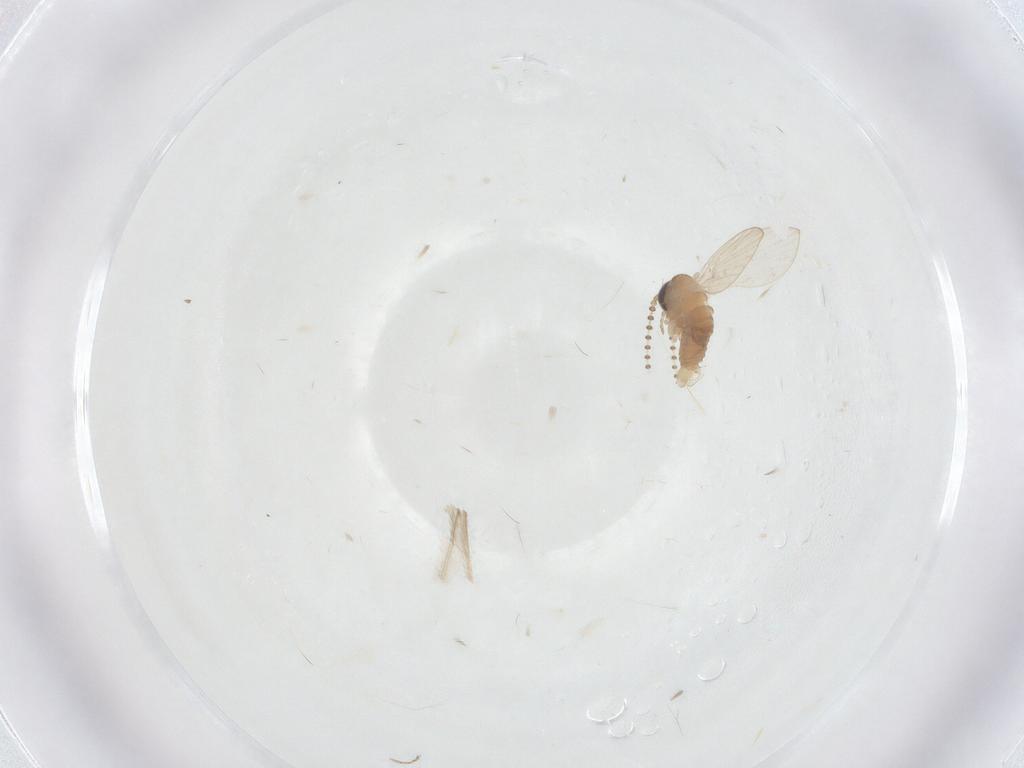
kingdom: Animalia
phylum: Arthropoda
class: Insecta
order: Diptera
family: Psychodidae
